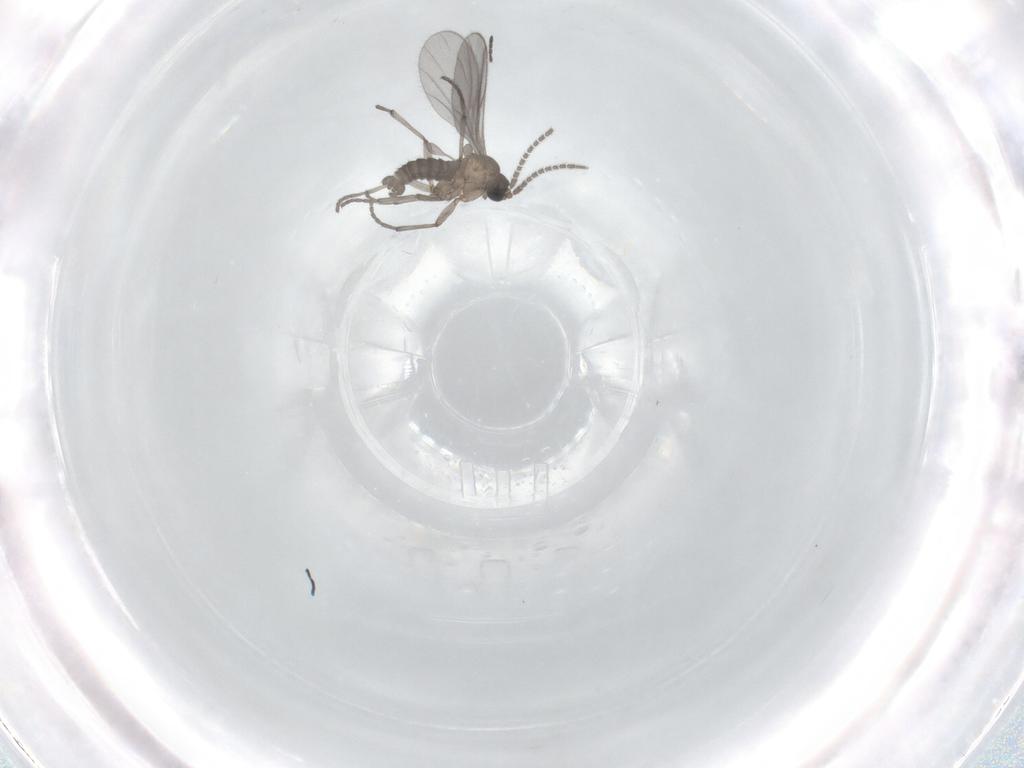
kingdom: Animalia
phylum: Arthropoda
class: Insecta
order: Diptera
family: Sciaridae
